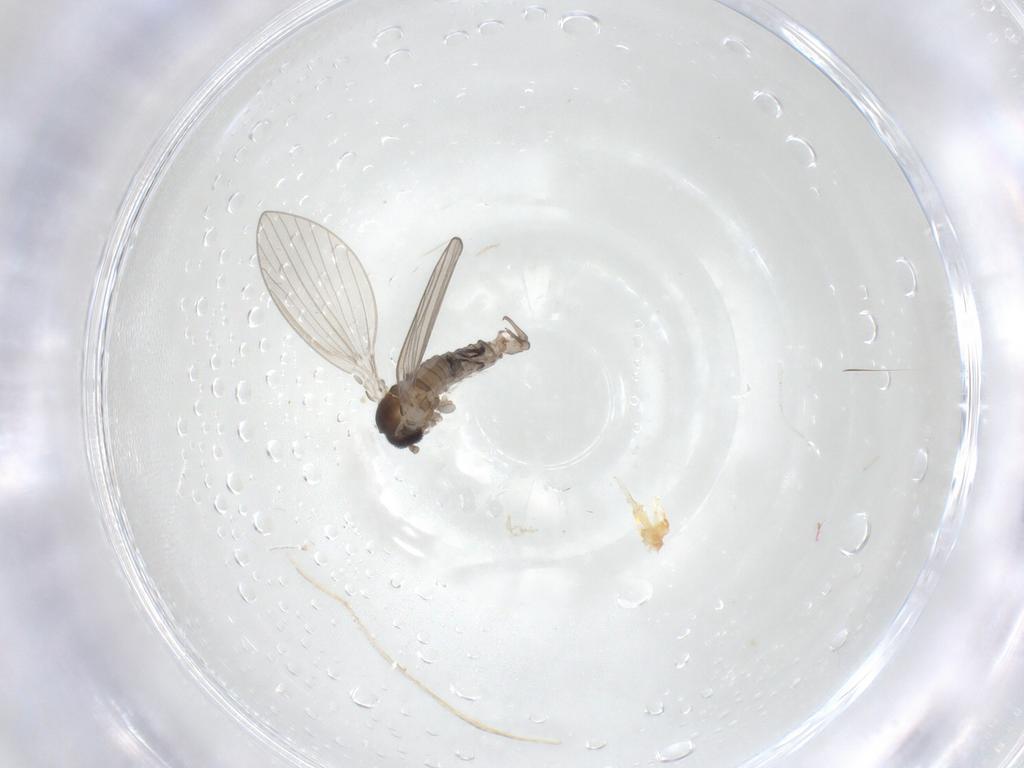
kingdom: Animalia
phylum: Arthropoda
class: Insecta
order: Diptera
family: Psychodidae
